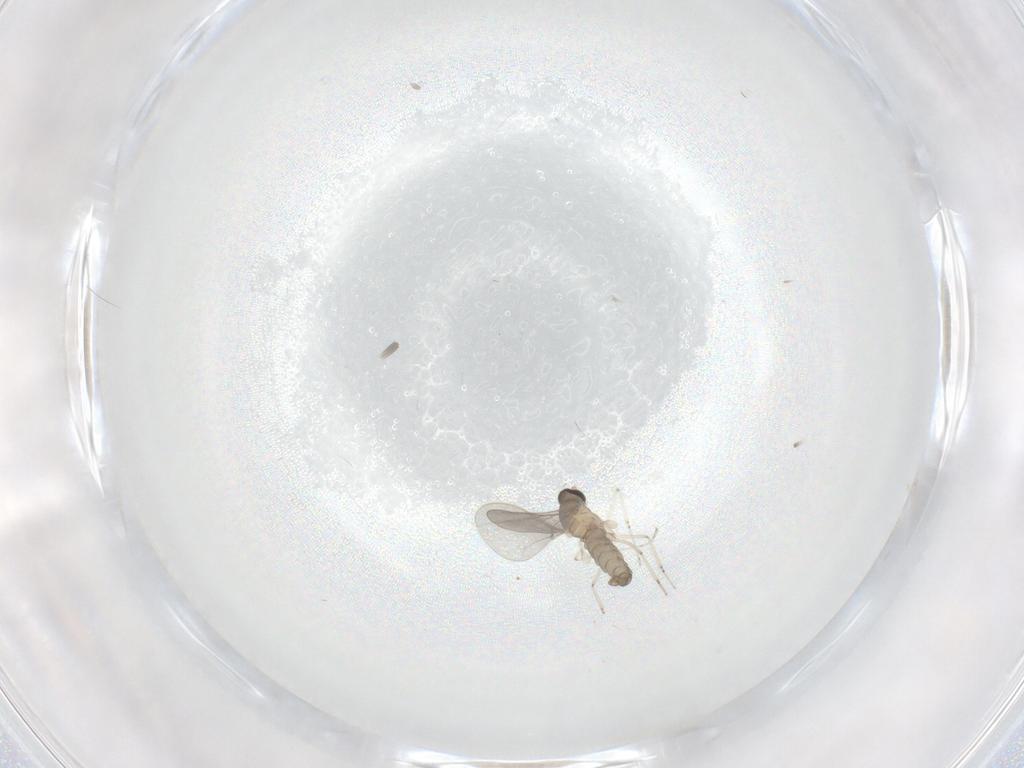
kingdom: Animalia
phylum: Arthropoda
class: Insecta
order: Diptera
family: Cecidomyiidae
